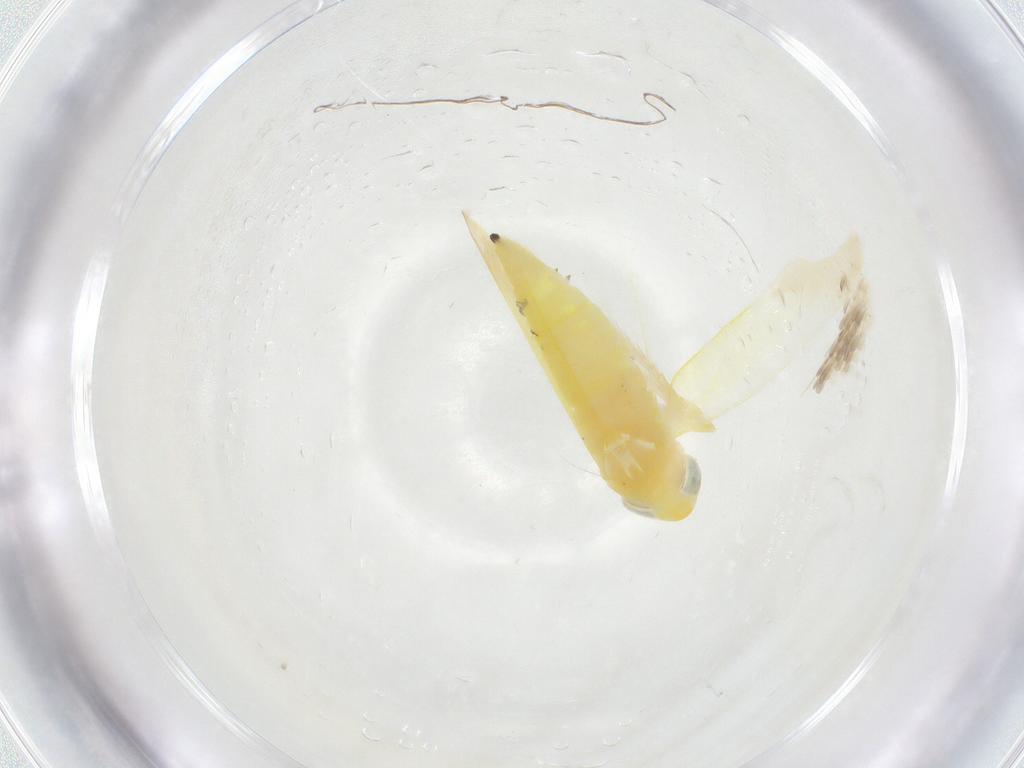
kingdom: Animalia
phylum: Arthropoda
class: Insecta
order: Hemiptera
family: Cicadellidae
